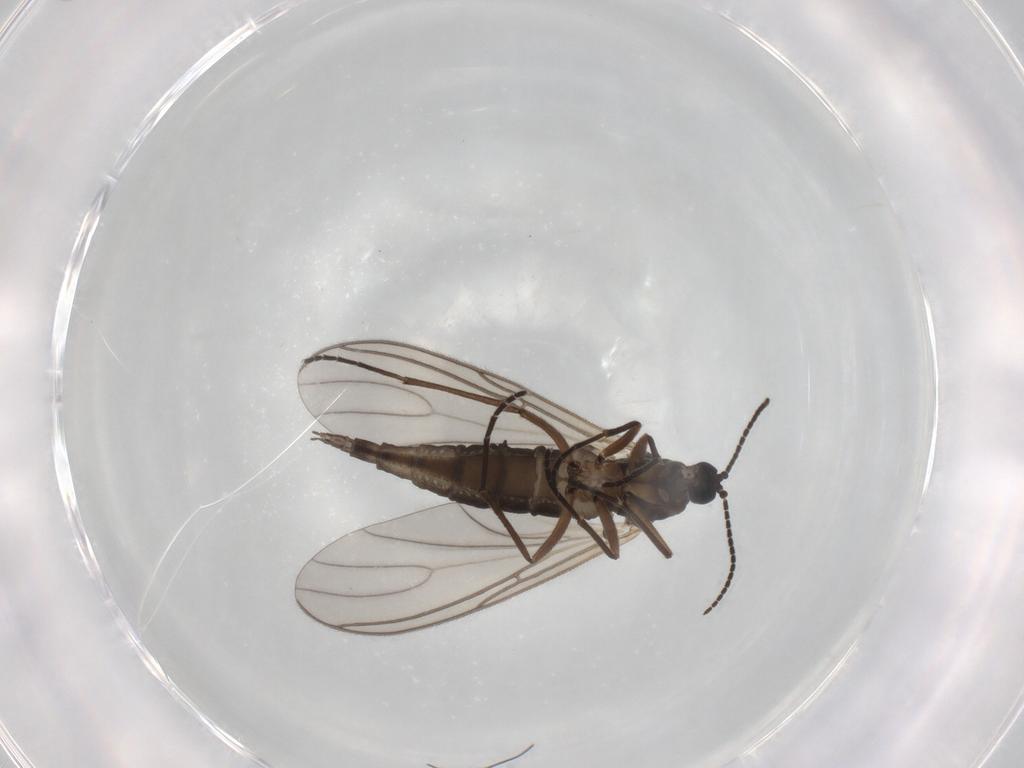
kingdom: Animalia
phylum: Arthropoda
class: Insecta
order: Diptera
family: Sciaridae
